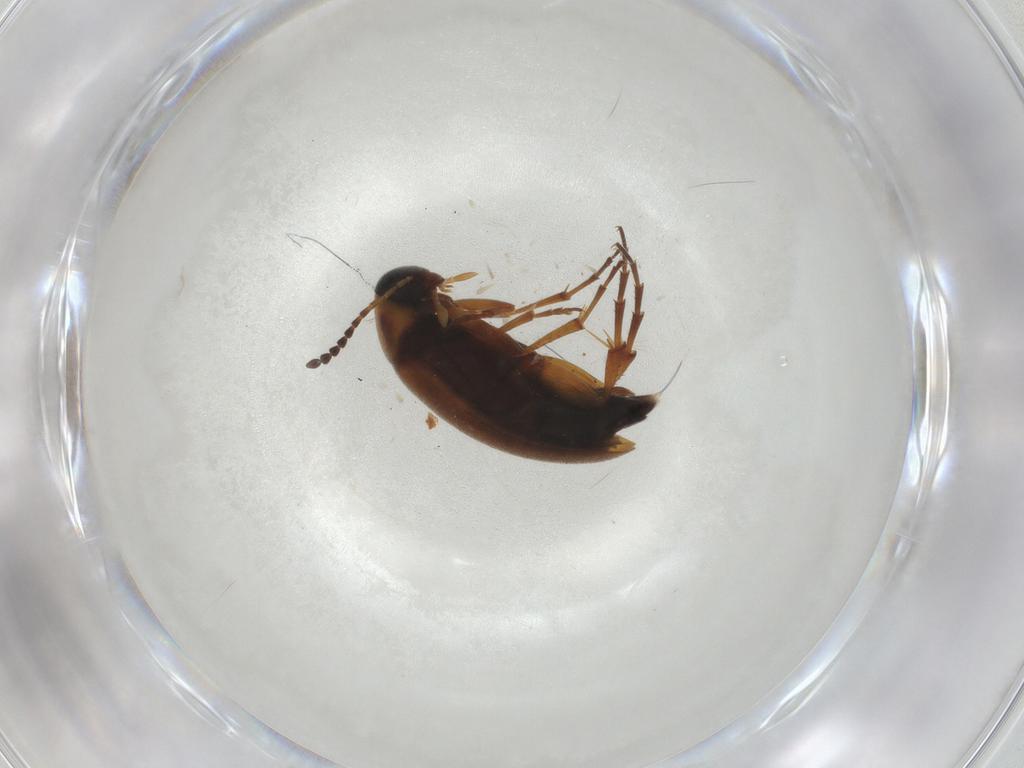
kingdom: Animalia
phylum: Arthropoda
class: Insecta
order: Coleoptera
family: Scraptiidae
